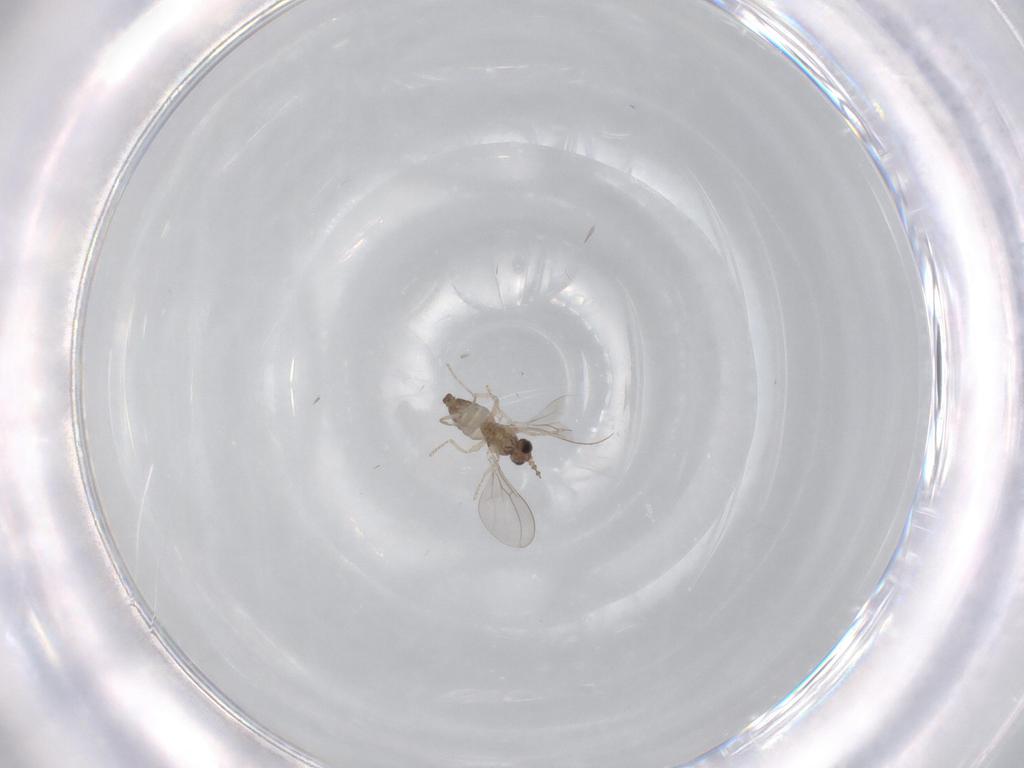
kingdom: Animalia
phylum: Arthropoda
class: Insecta
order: Diptera
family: Cecidomyiidae
